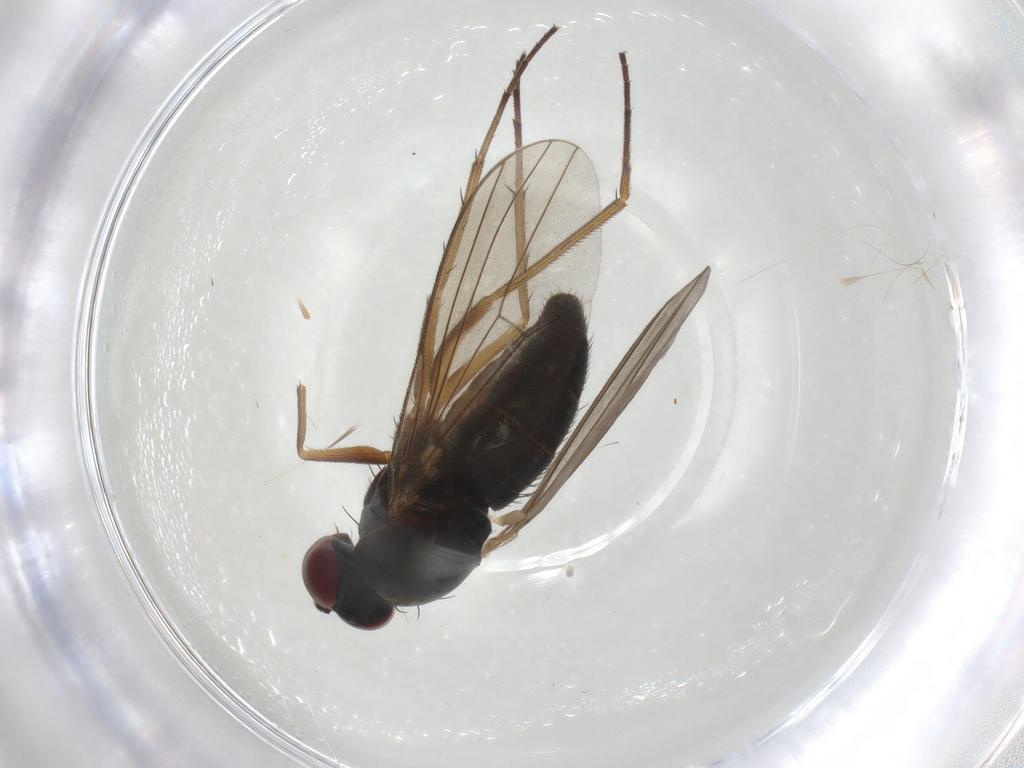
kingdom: Animalia
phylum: Arthropoda
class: Insecta
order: Diptera
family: Dolichopodidae
